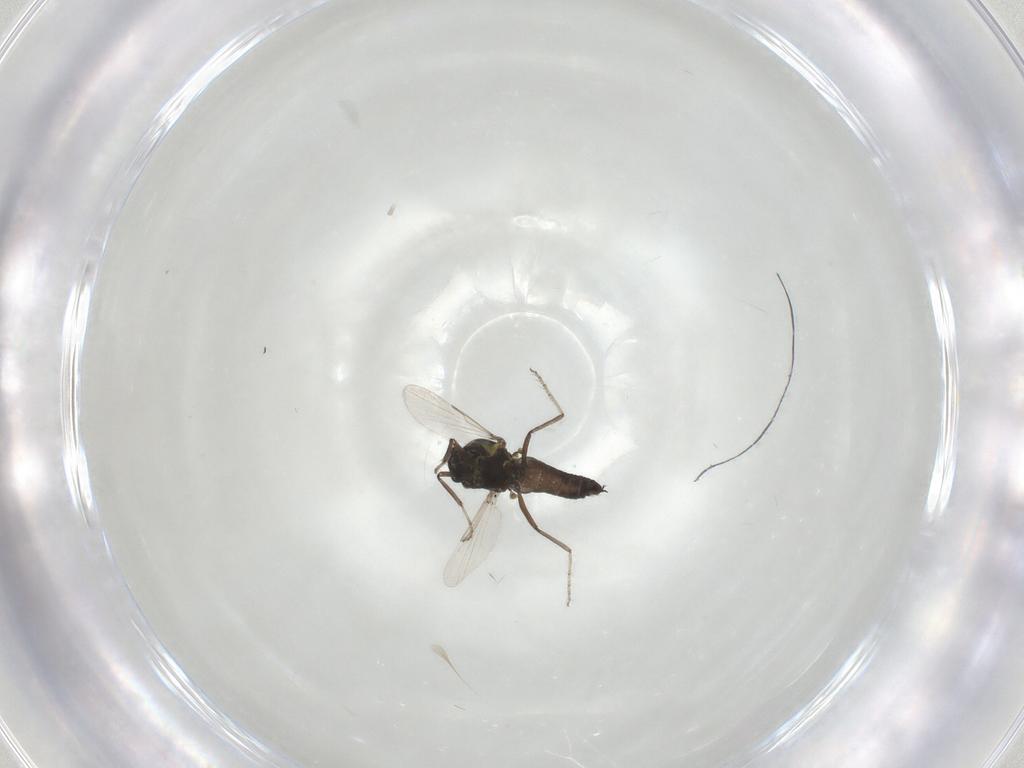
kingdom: Animalia
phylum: Arthropoda
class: Insecta
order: Diptera
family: Ceratopogonidae
